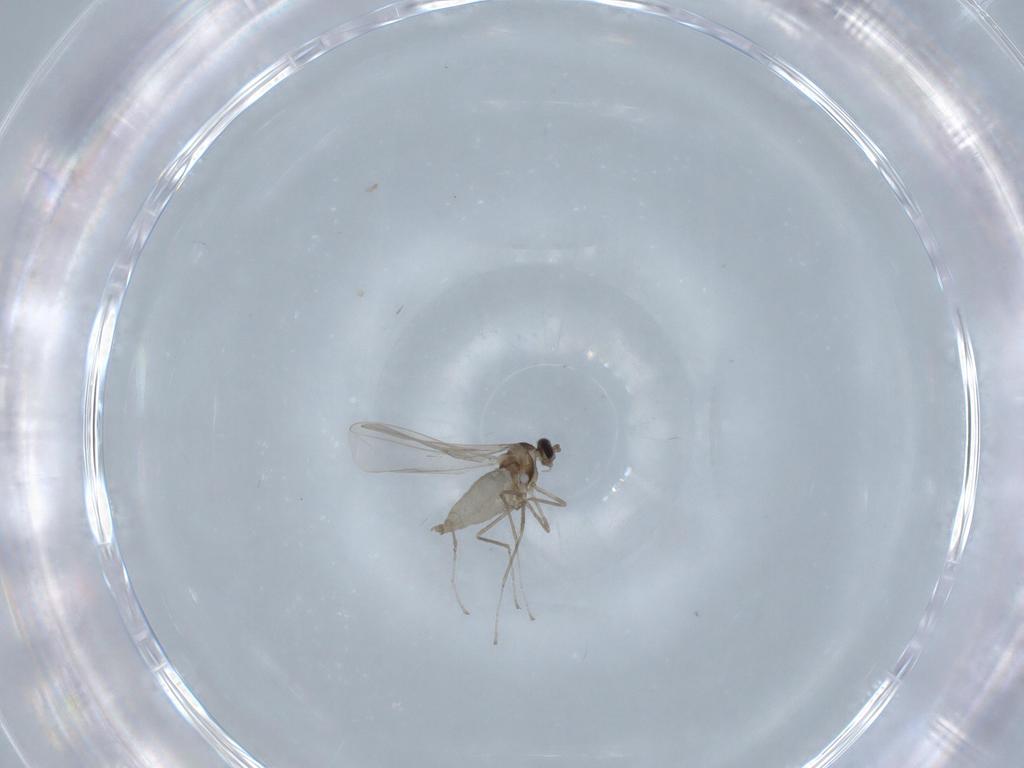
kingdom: Animalia
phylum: Arthropoda
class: Insecta
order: Diptera
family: Cecidomyiidae
